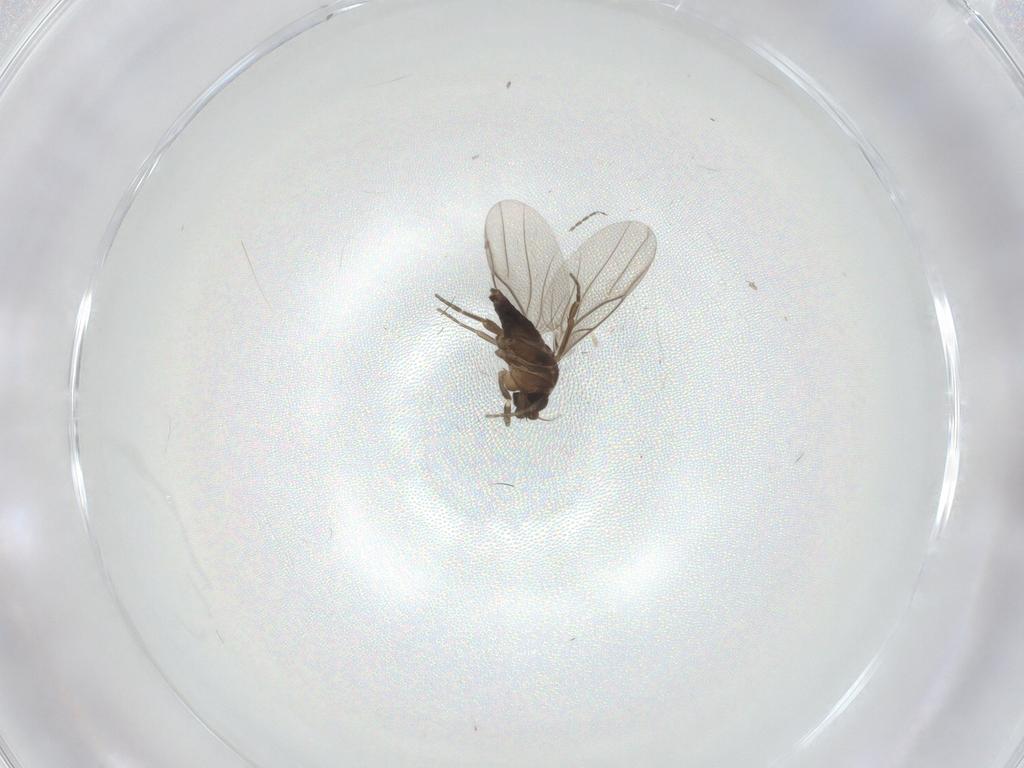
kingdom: Animalia
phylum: Arthropoda
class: Insecta
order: Diptera
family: Phoridae
